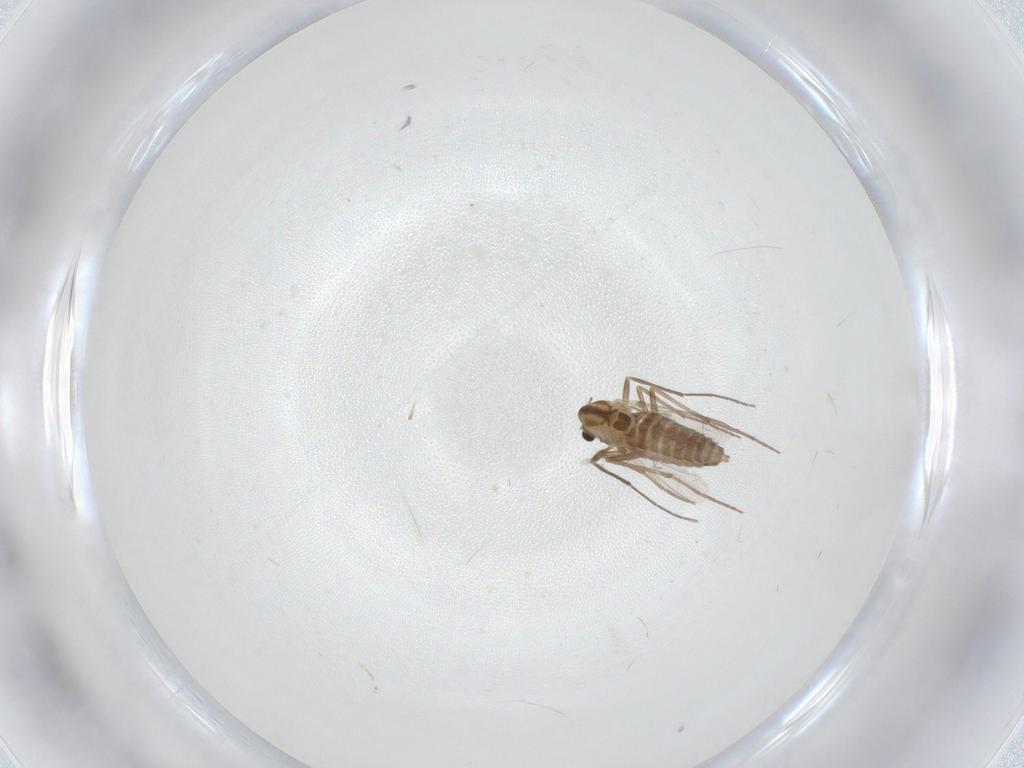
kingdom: Animalia
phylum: Arthropoda
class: Insecta
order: Diptera
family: Chironomidae
